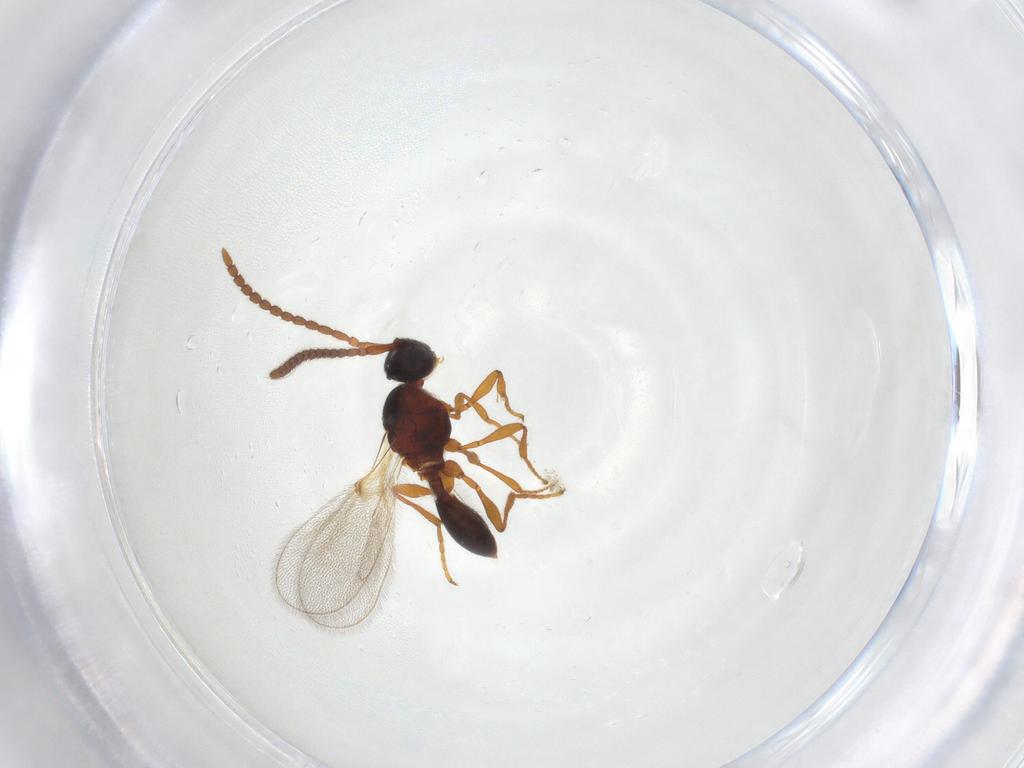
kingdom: Animalia
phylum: Arthropoda
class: Insecta
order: Hymenoptera
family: Diapriidae
